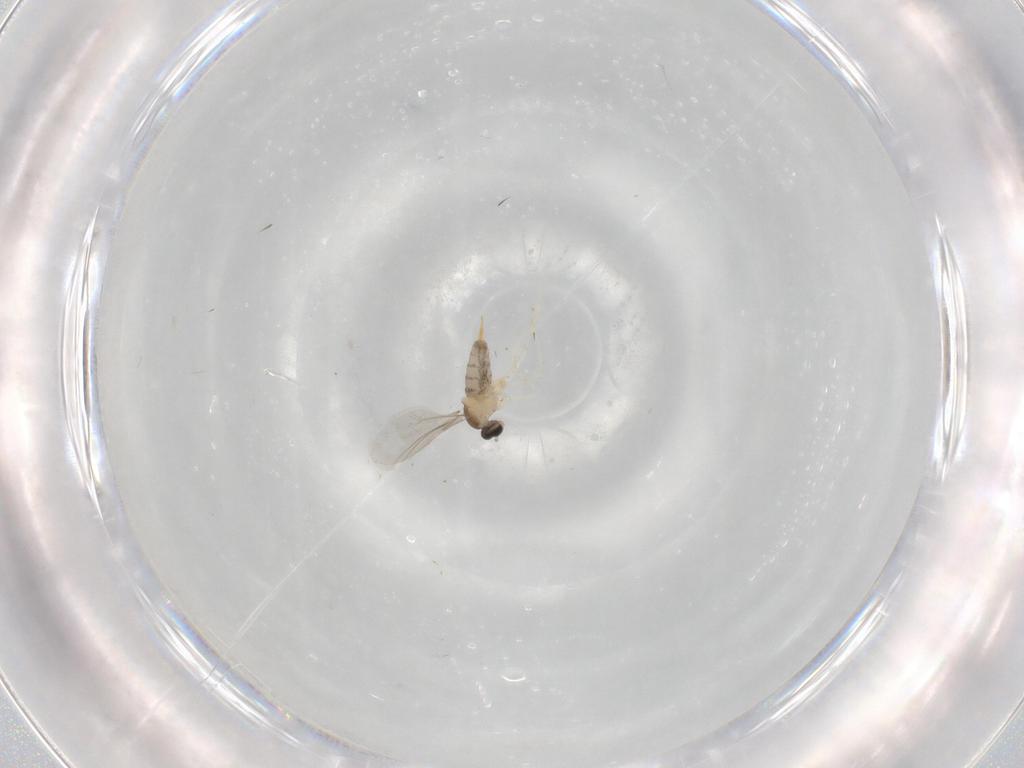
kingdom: Animalia
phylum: Arthropoda
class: Insecta
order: Diptera
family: Cecidomyiidae
